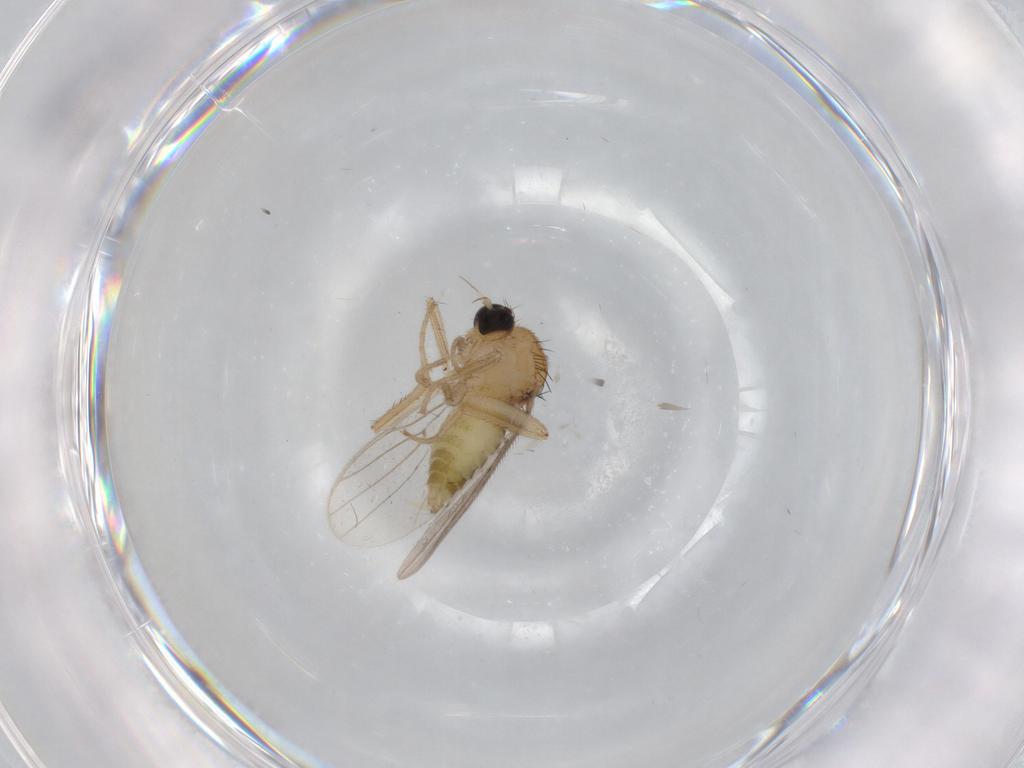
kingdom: Animalia
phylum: Arthropoda
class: Insecta
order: Diptera
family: Hybotidae
